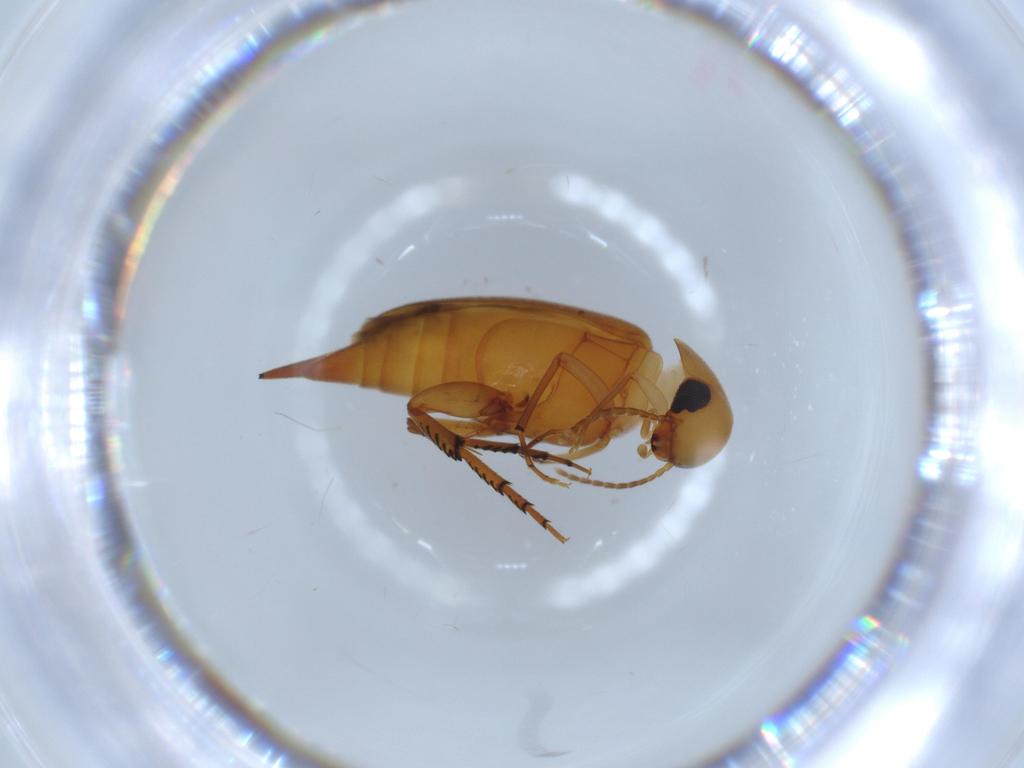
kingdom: Animalia
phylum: Arthropoda
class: Insecta
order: Coleoptera
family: Mordellidae
